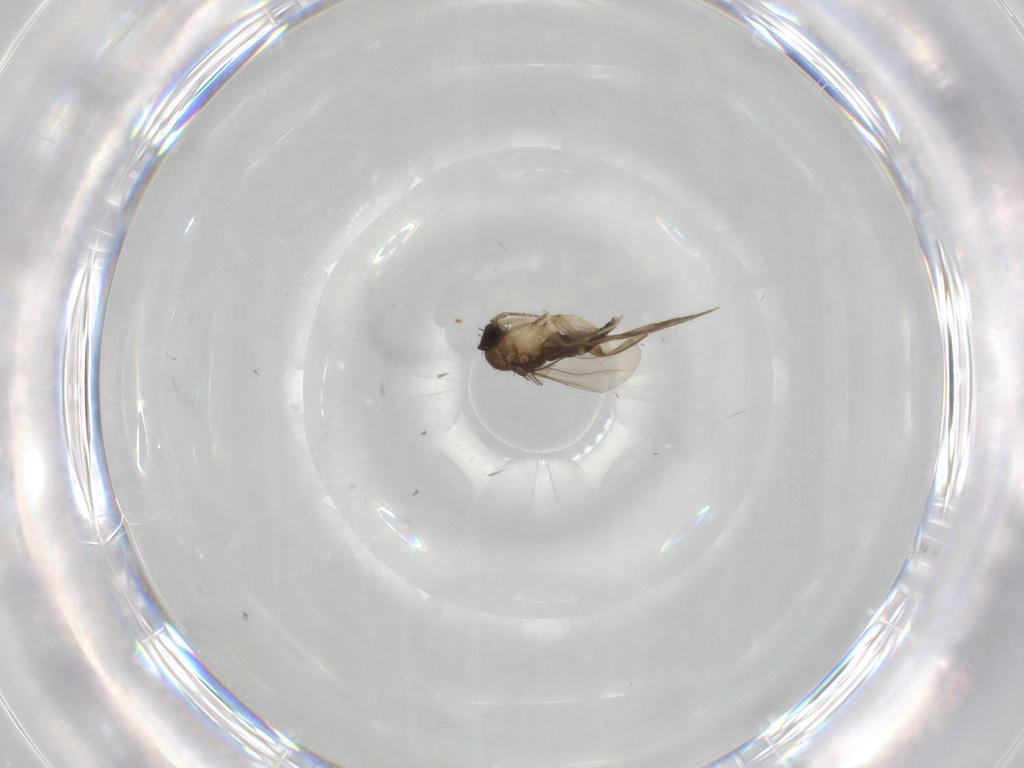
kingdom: Animalia
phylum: Arthropoda
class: Insecta
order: Diptera
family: Phoridae
